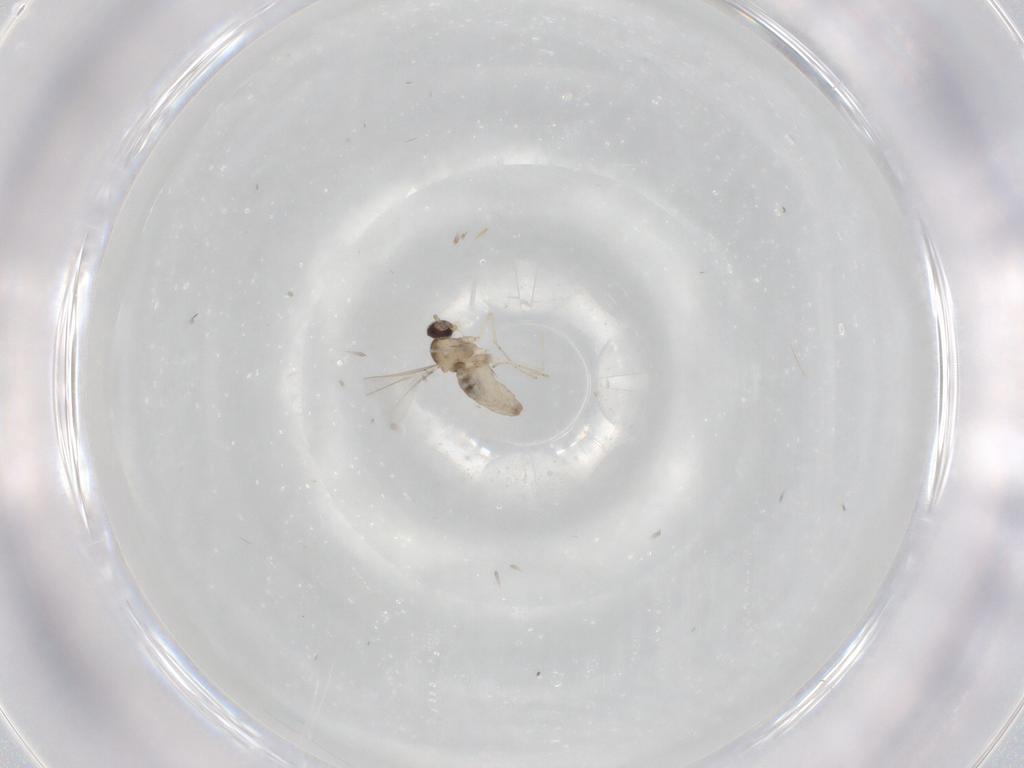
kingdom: Animalia
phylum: Arthropoda
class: Insecta
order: Diptera
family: Cecidomyiidae
